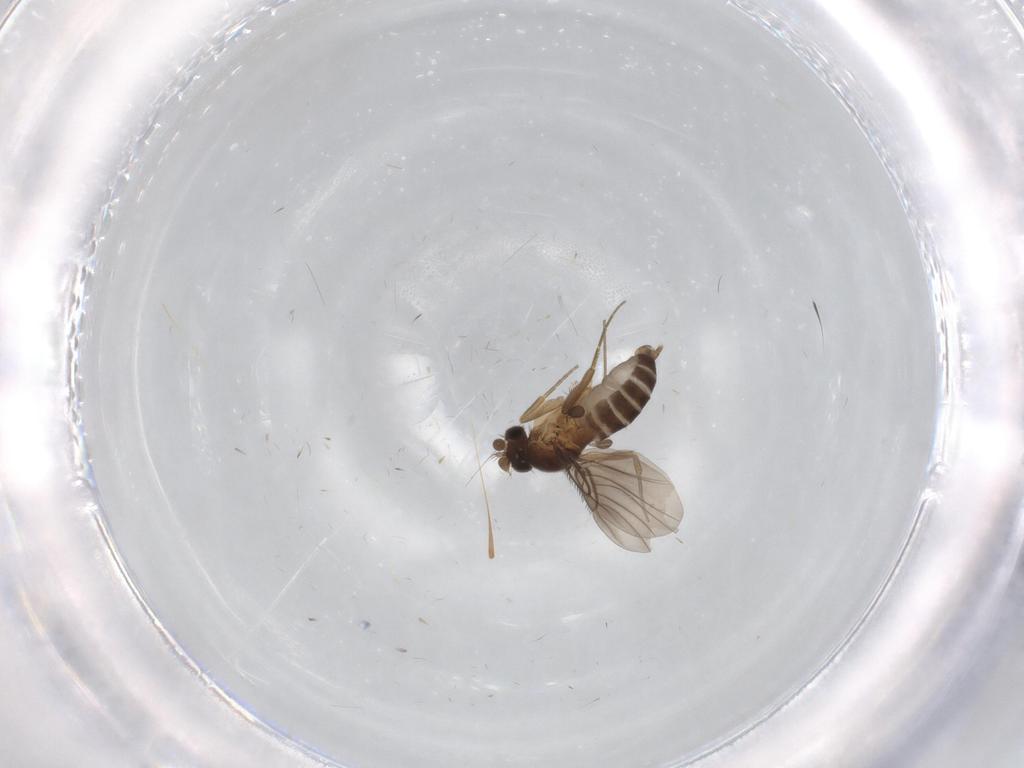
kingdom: Animalia
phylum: Arthropoda
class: Insecta
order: Diptera
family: Phoridae
